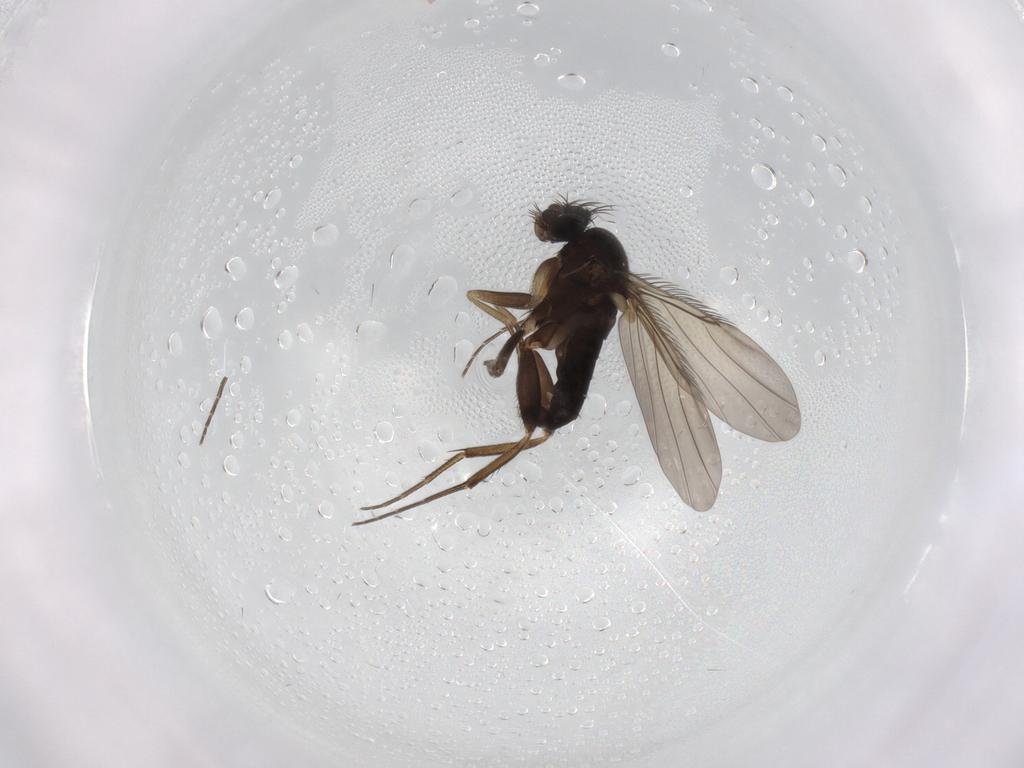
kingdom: Animalia
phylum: Arthropoda
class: Insecta
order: Diptera
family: Phoridae
